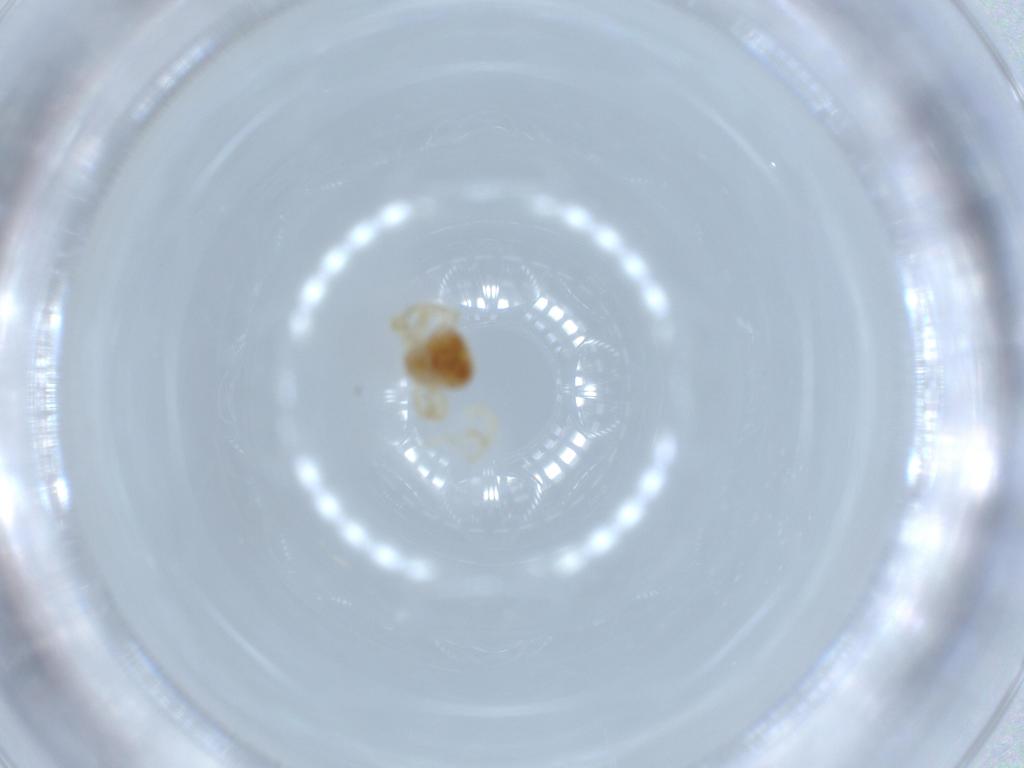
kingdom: Animalia
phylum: Arthropoda
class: Arachnida
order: Trombidiformes
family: Anystidae
